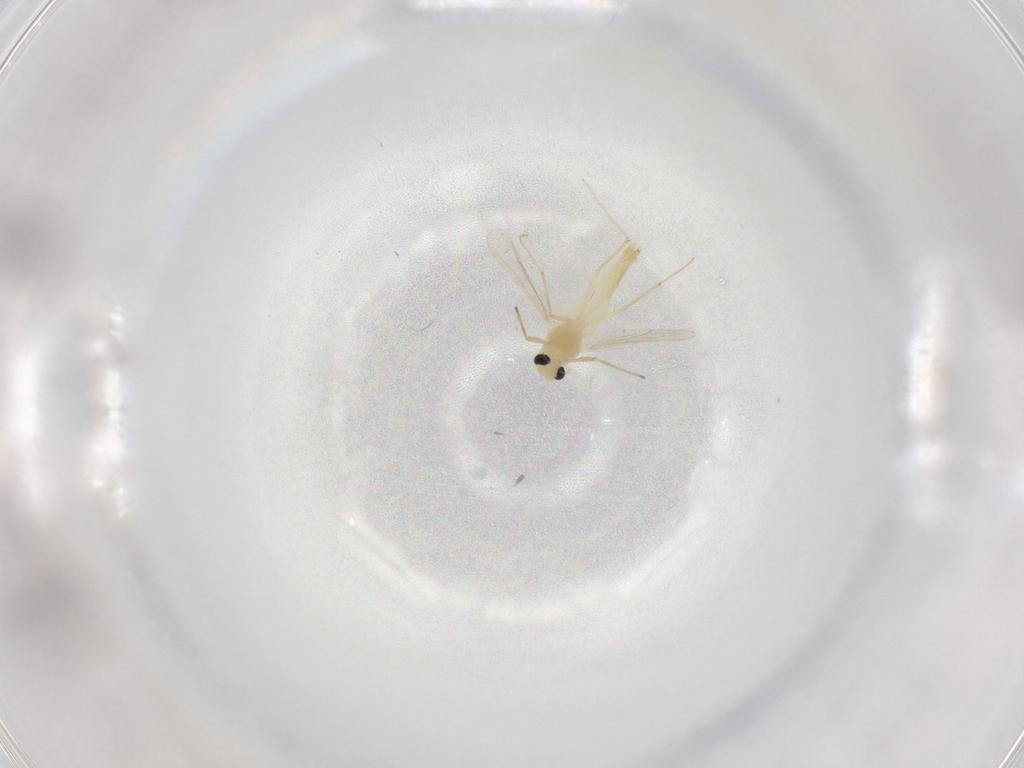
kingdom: Animalia
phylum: Arthropoda
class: Insecta
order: Diptera
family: Chironomidae
